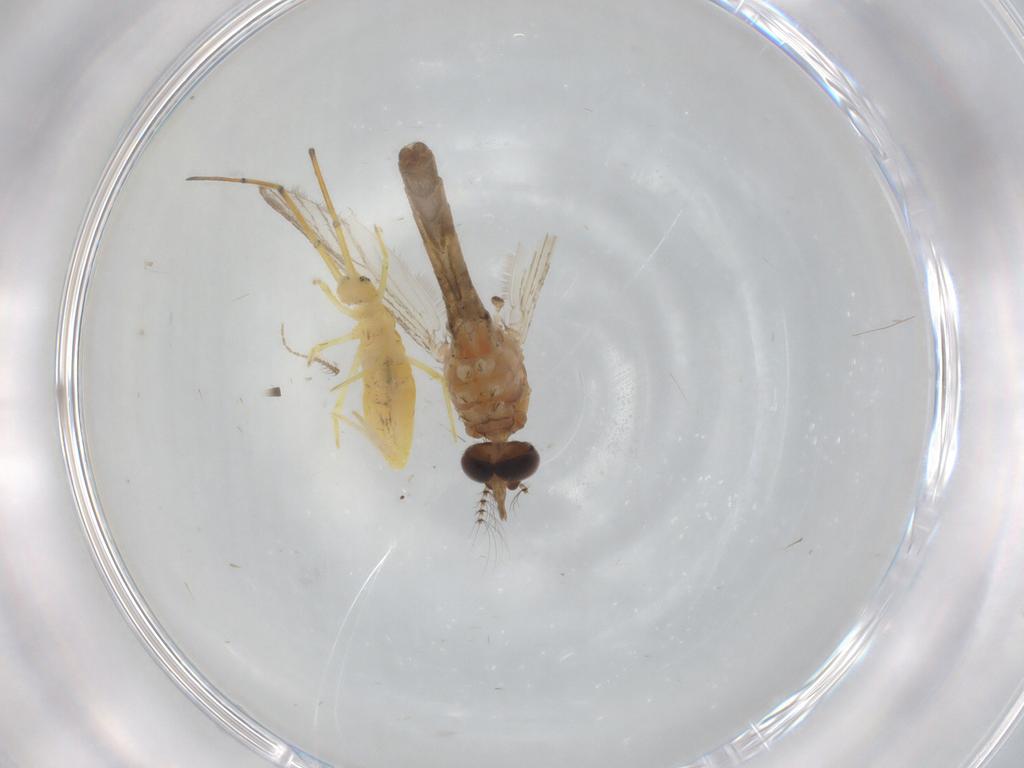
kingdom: Animalia
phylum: Arthropoda
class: Insecta
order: Diptera
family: Ceratopogonidae
